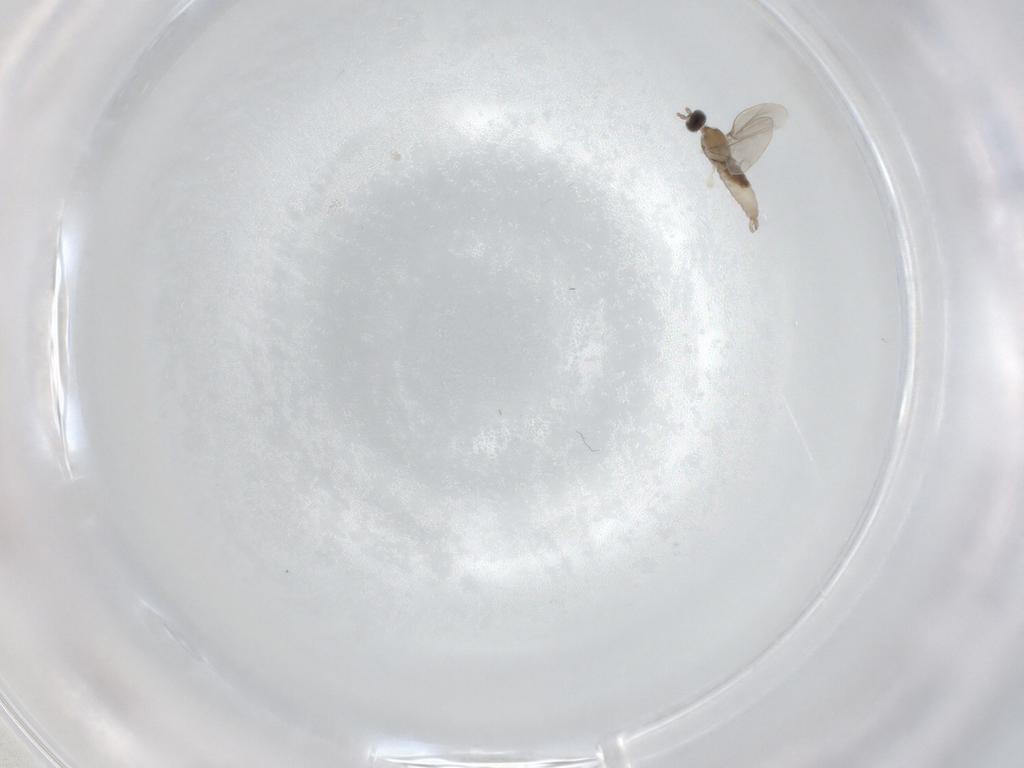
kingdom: Animalia
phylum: Arthropoda
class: Insecta
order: Diptera
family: Cecidomyiidae
